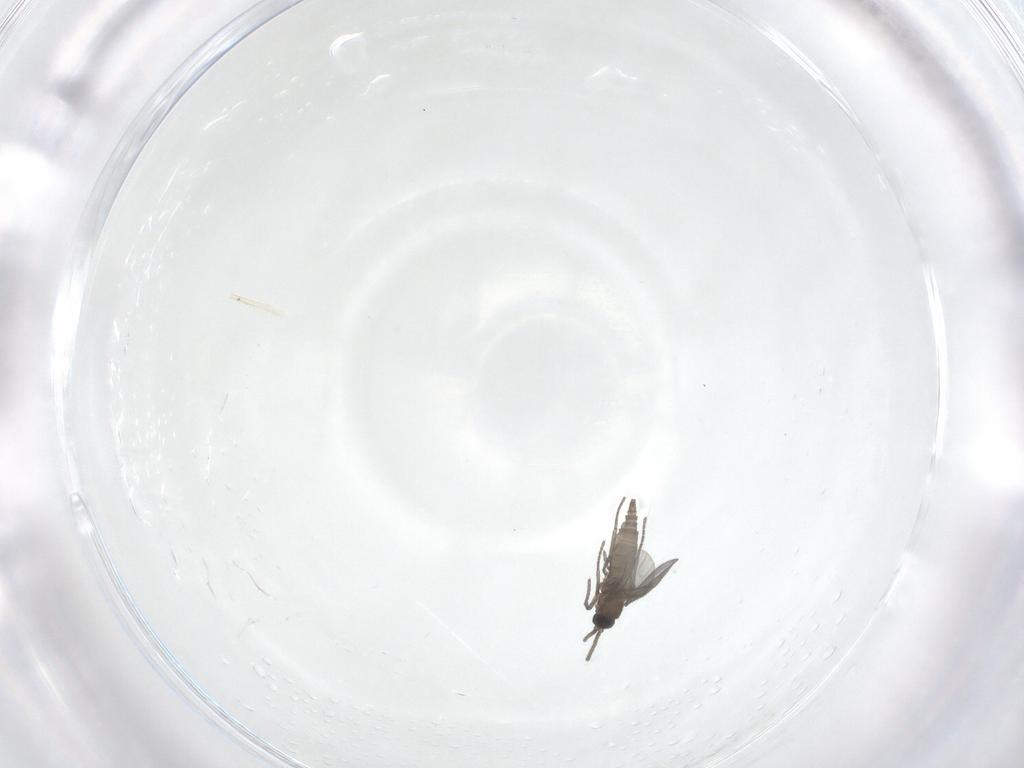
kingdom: Animalia
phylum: Arthropoda
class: Insecta
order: Diptera
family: Sciaridae
